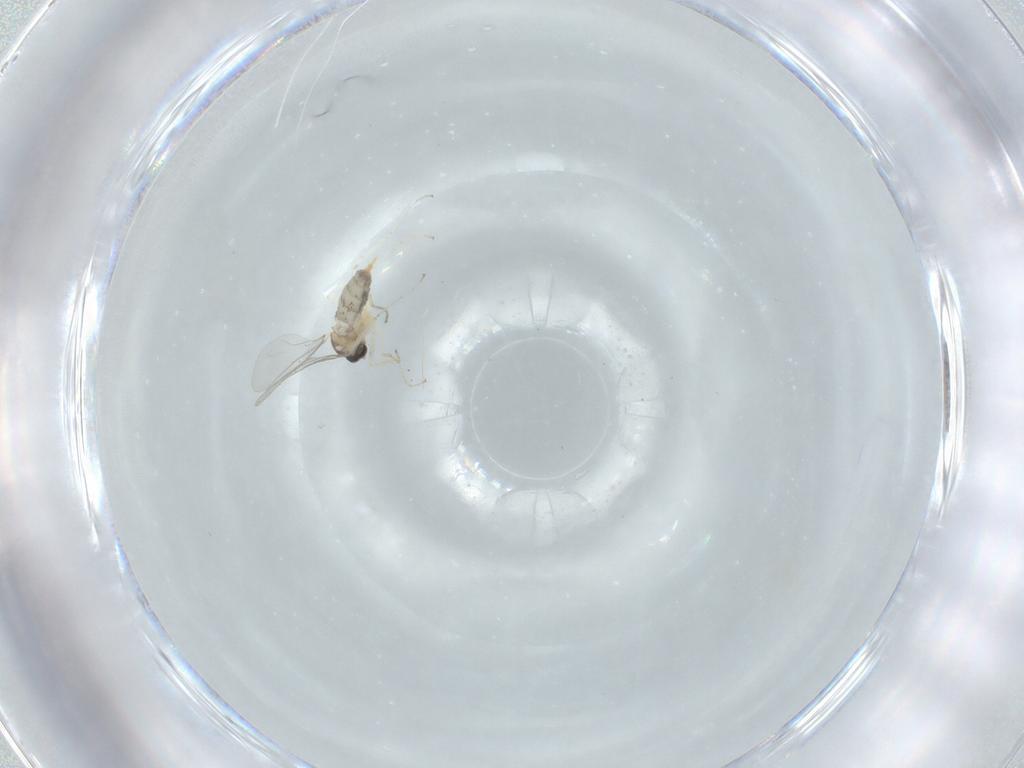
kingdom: Animalia
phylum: Arthropoda
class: Insecta
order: Diptera
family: Cecidomyiidae
